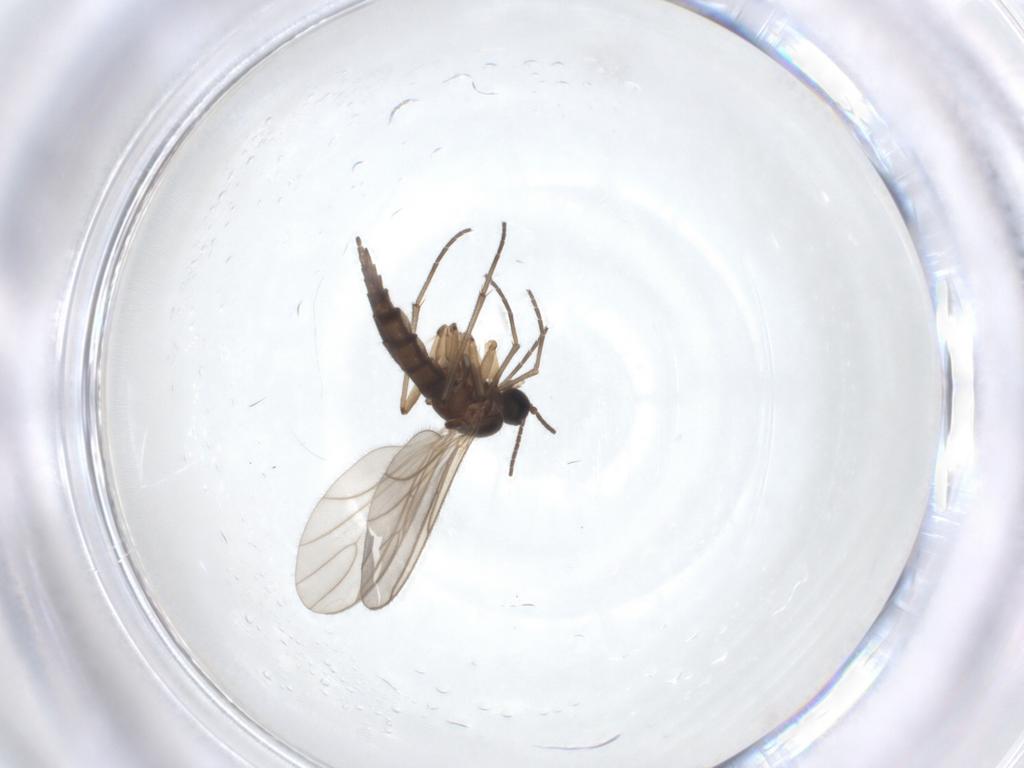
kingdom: Animalia
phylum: Arthropoda
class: Insecta
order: Diptera
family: Sciaridae
